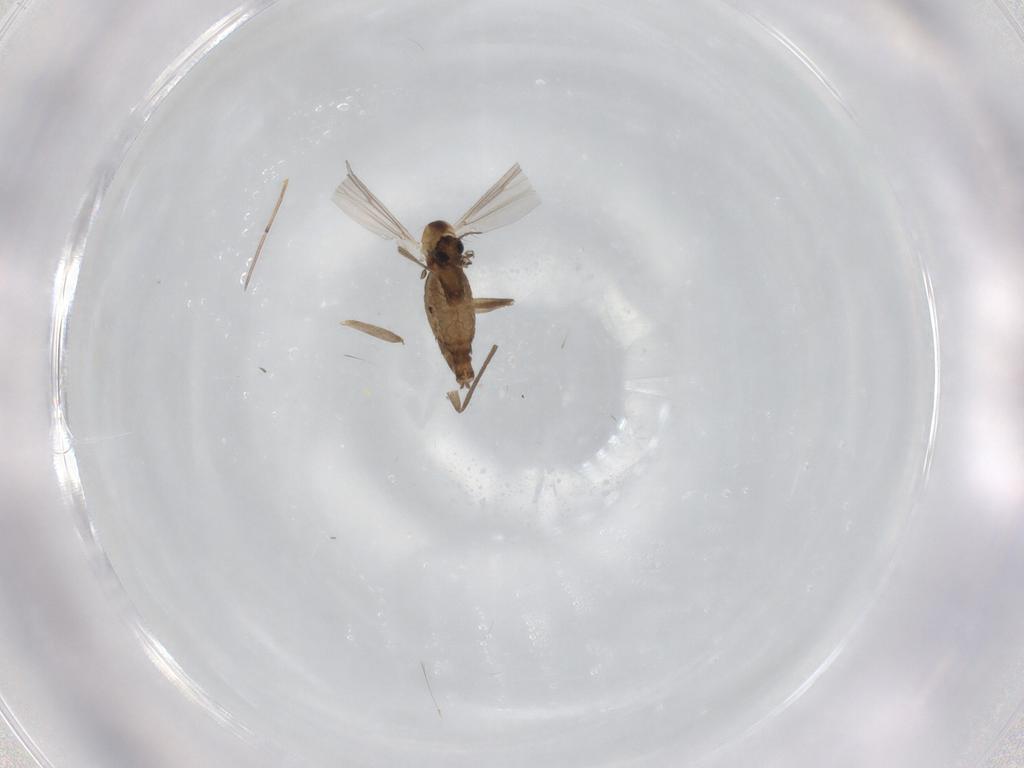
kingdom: Animalia
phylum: Arthropoda
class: Insecta
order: Diptera
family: Chironomidae
